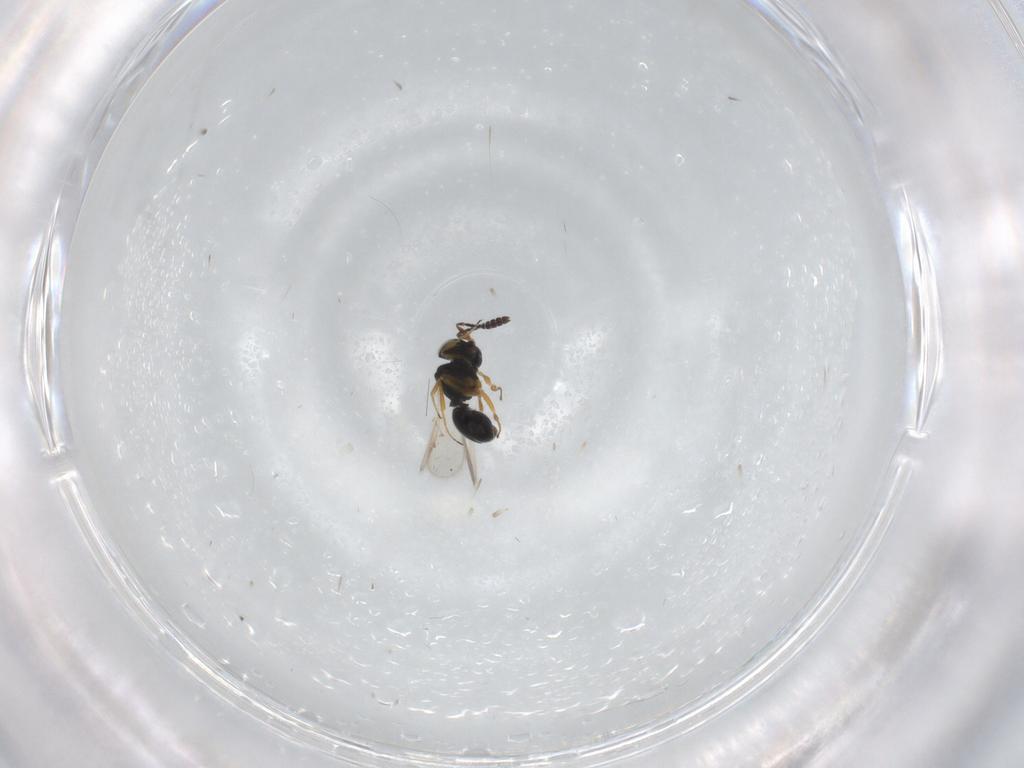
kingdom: Animalia
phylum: Arthropoda
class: Insecta
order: Hymenoptera
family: Scelionidae
